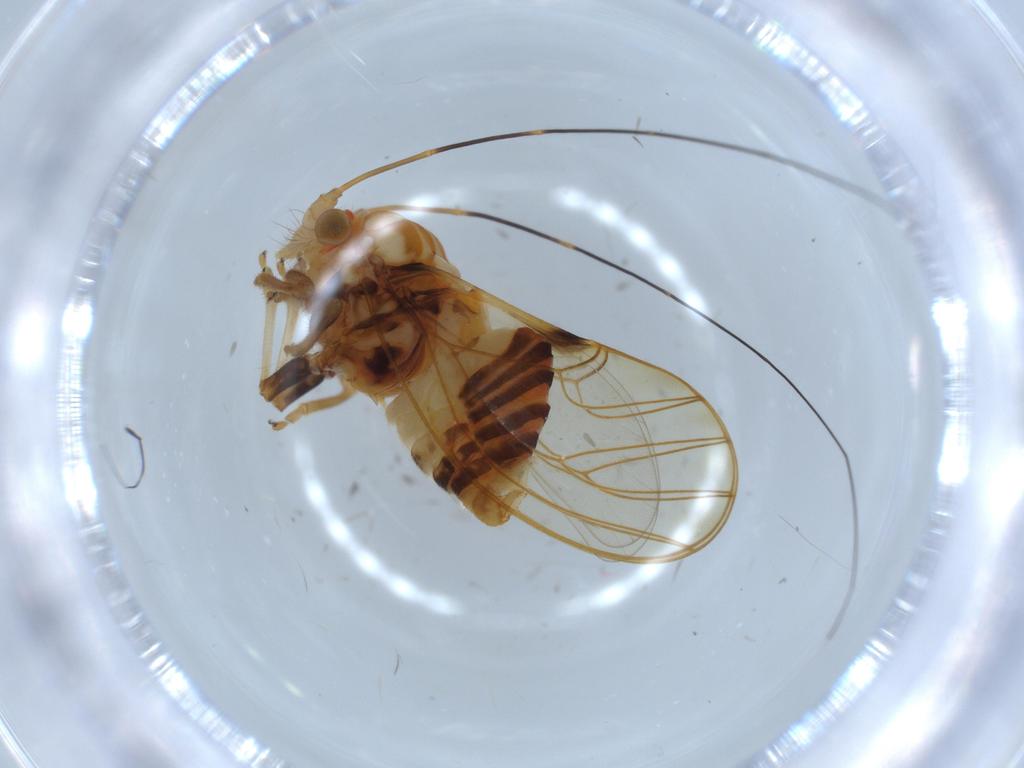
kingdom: Animalia
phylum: Arthropoda
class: Insecta
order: Hemiptera
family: Psyllidae
